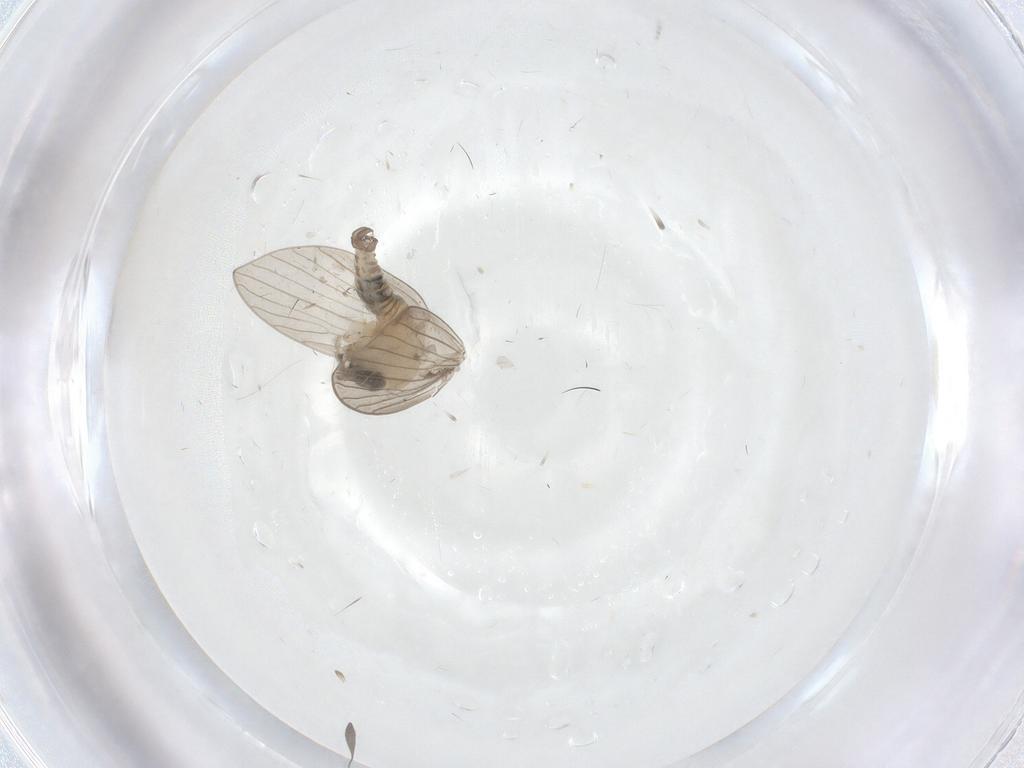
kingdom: Animalia
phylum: Arthropoda
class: Insecta
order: Diptera
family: Psychodidae
